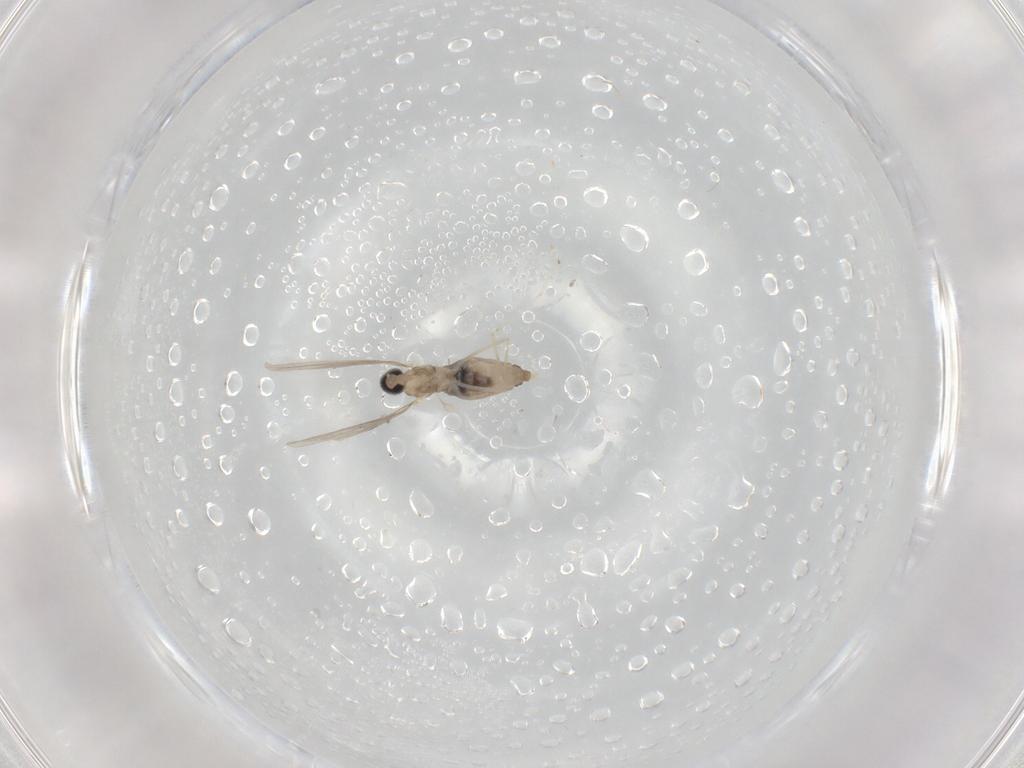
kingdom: Animalia
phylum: Arthropoda
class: Insecta
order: Diptera
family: Cecidomyiidae
